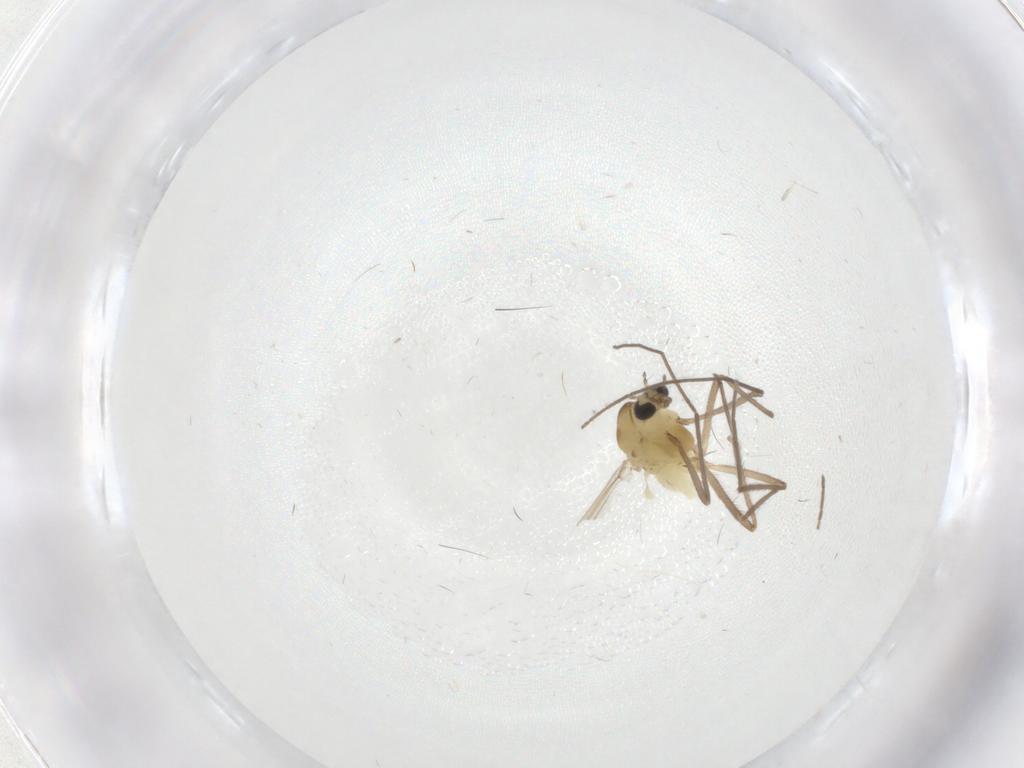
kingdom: Animalia
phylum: Arthropoda
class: Insecta
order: Diptera
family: Chironomidae
